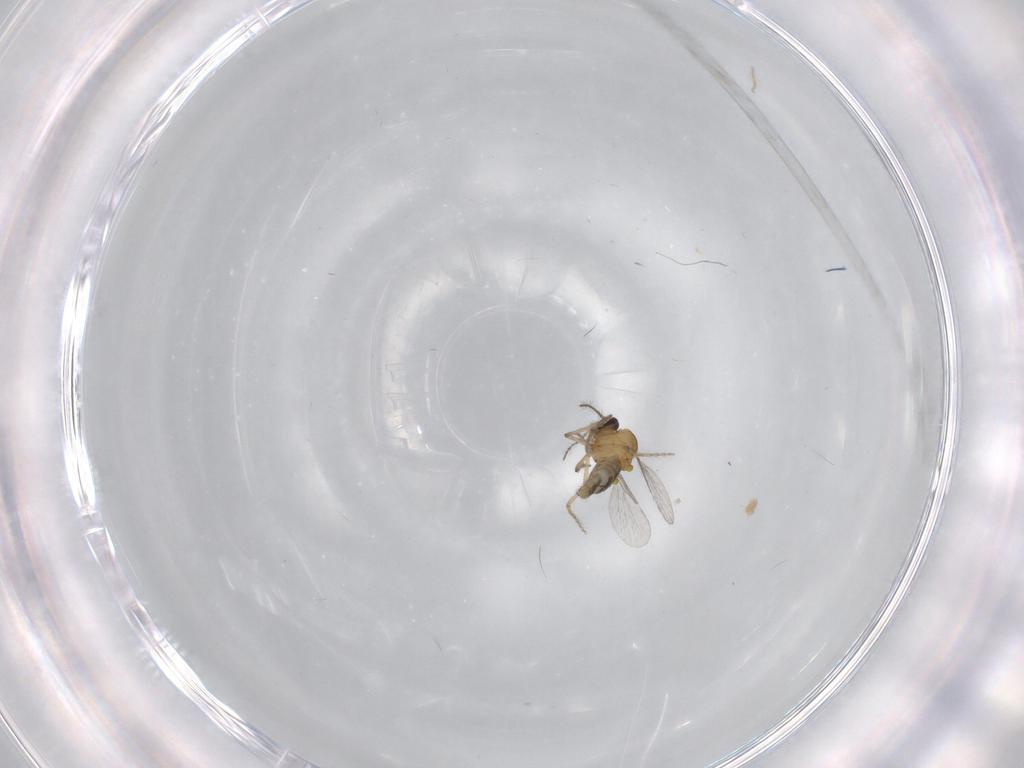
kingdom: Animalia
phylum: Arthropoda
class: Insecta
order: Diptera
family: Ceratopogonidae
